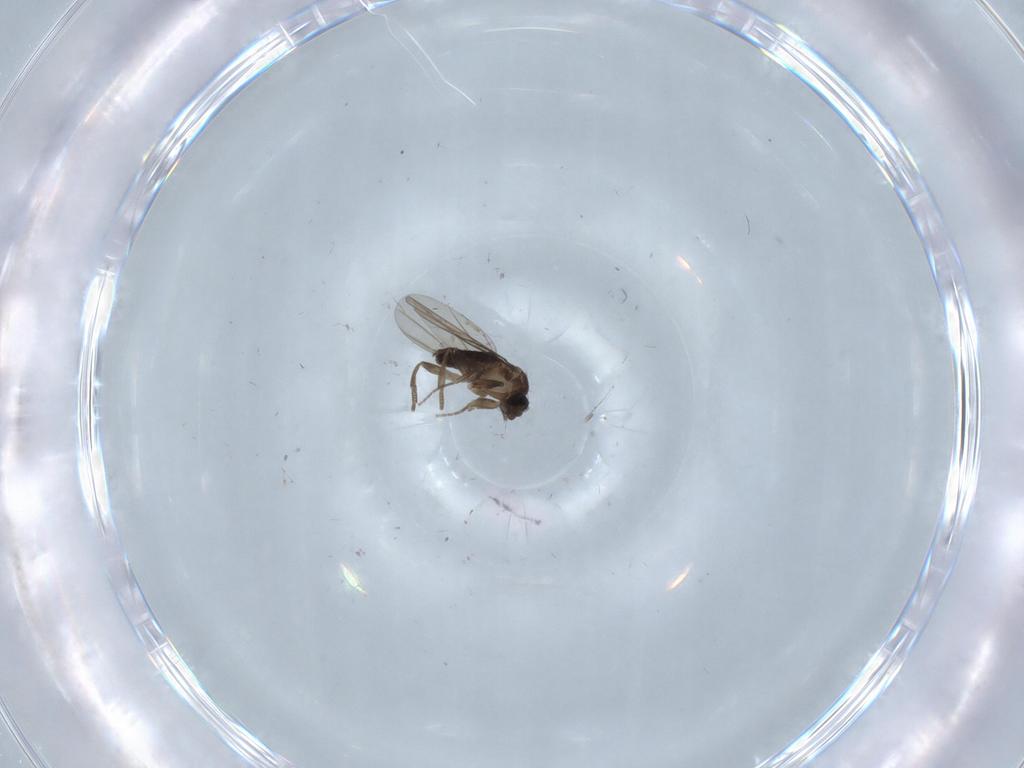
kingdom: Animalia
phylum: Arthropoda
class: Insecta
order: Diptera
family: Phoridae
